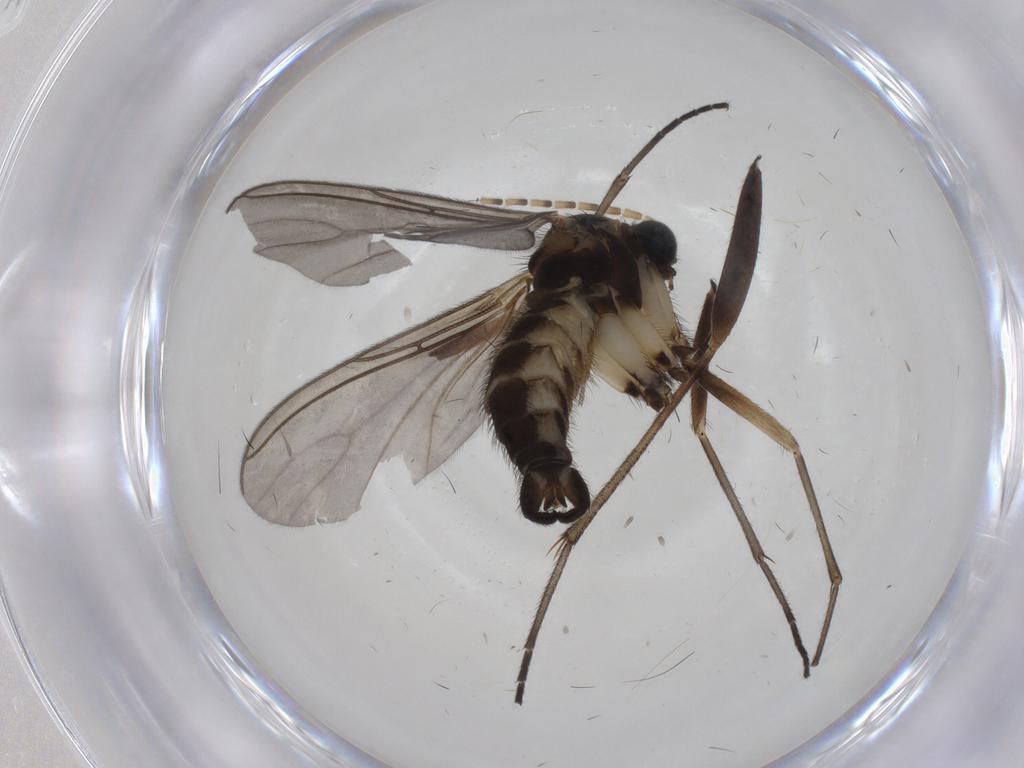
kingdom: Animalia
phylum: Arthropoda
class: Insecta
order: Diptera
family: Sciaridae
